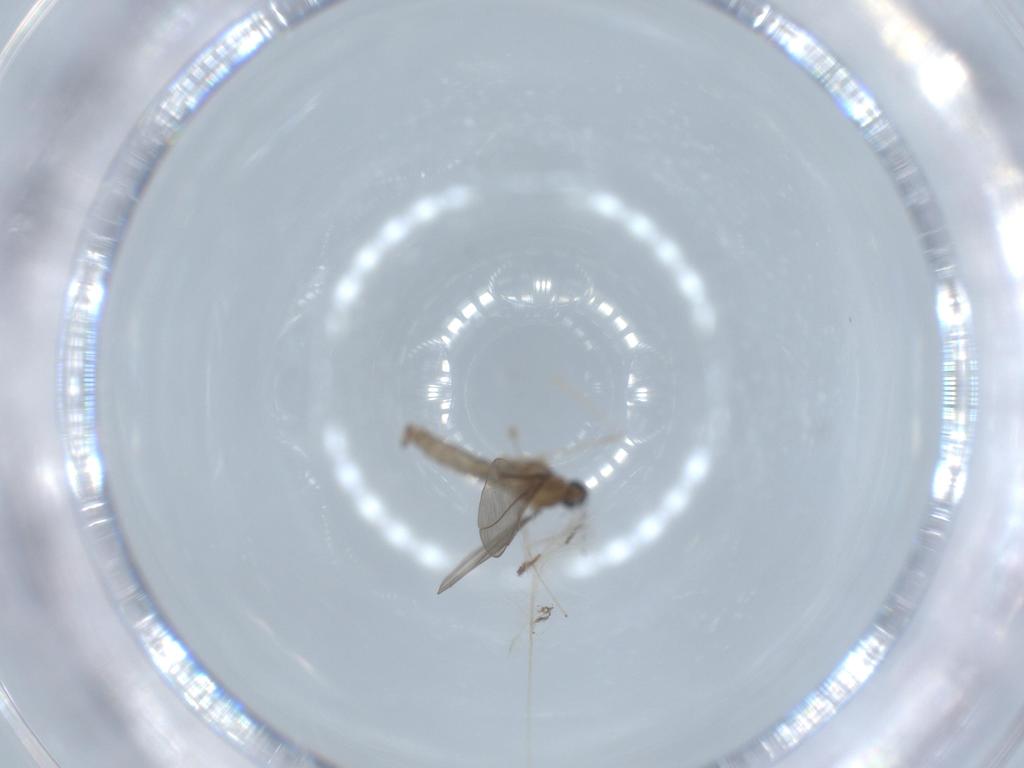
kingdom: Animalia
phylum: Arthropoda
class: Insecta
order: Diptera
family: Cecidomyiidae
